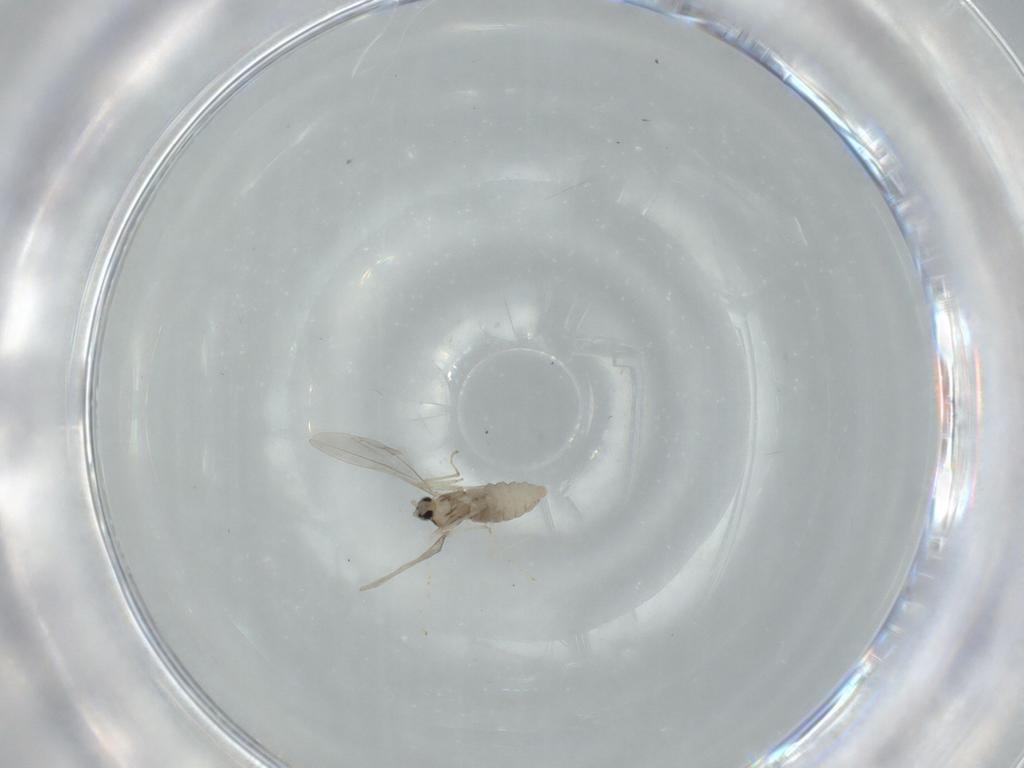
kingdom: Animalia
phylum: Arthropoda
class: Insecta
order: Diptera
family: Cecidomyiidae
